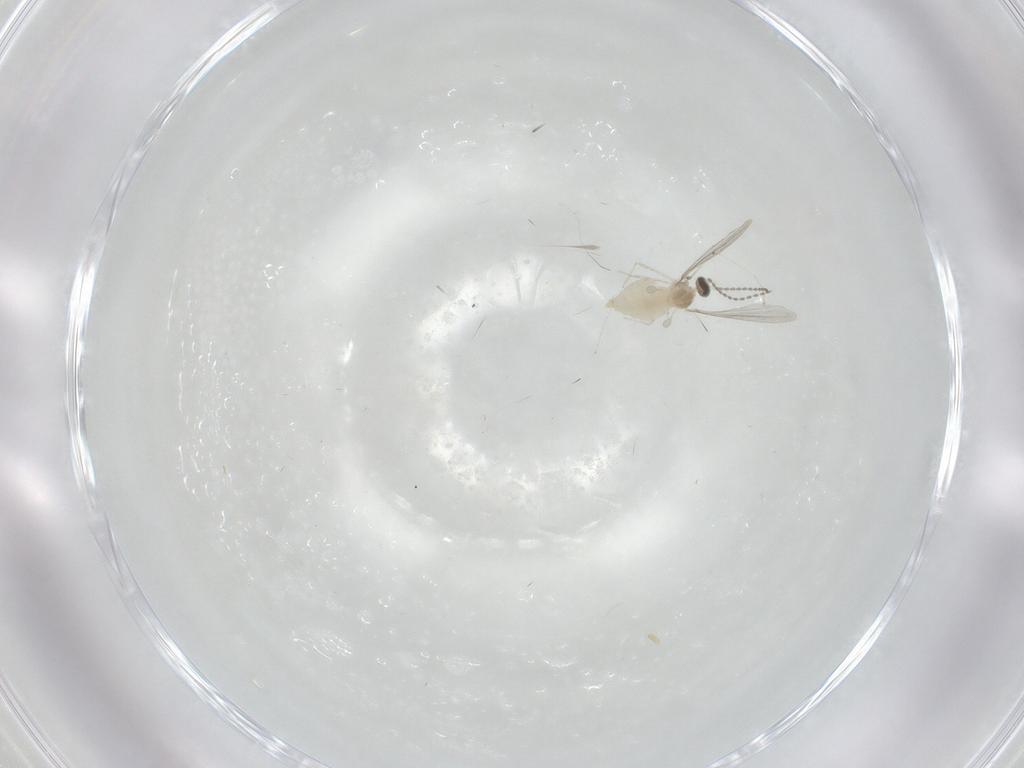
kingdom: Animalia
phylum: Arthropoda
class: Insecta
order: Diptera
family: Cecidomyiidae
